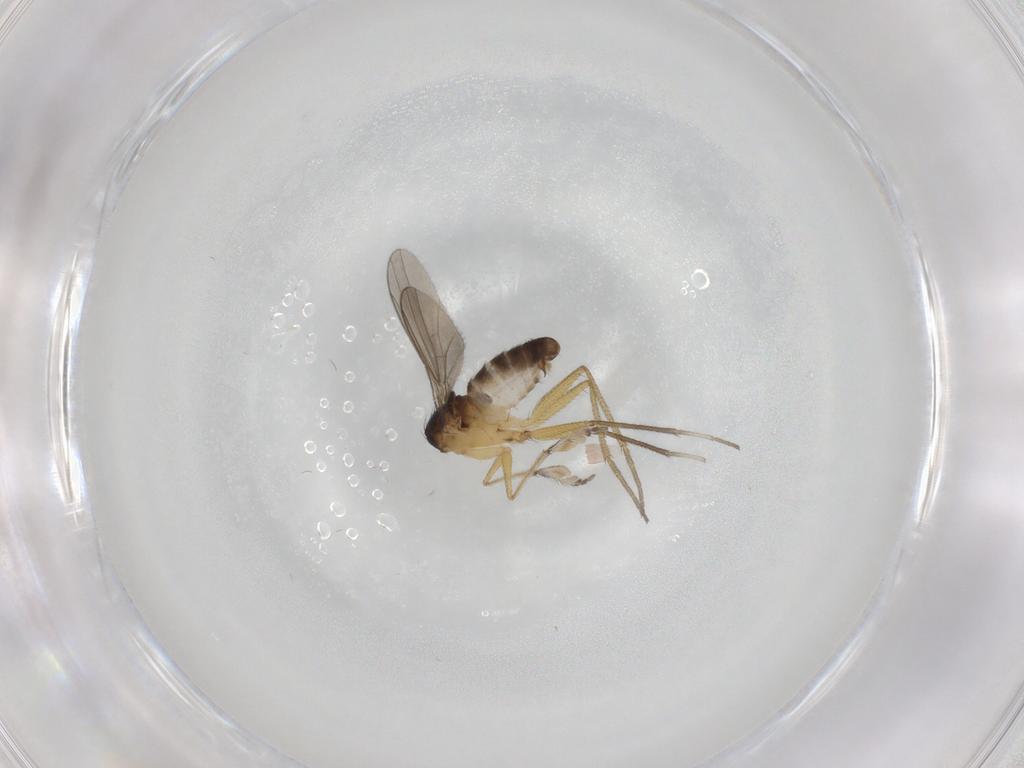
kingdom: Animalia
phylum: Arthropoda
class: Insecta
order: Diptera
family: Dolichopodidae
